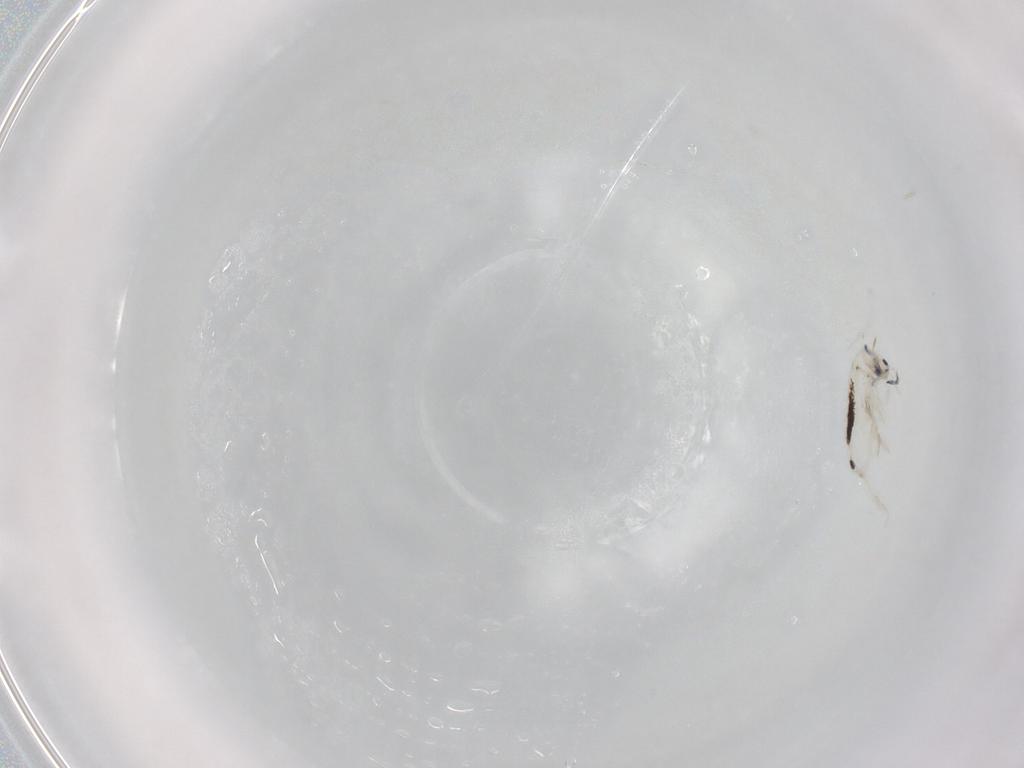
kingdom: Animalia
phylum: Arthropoda
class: Collembola
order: Entomobryomorpha
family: Entomobryidae
